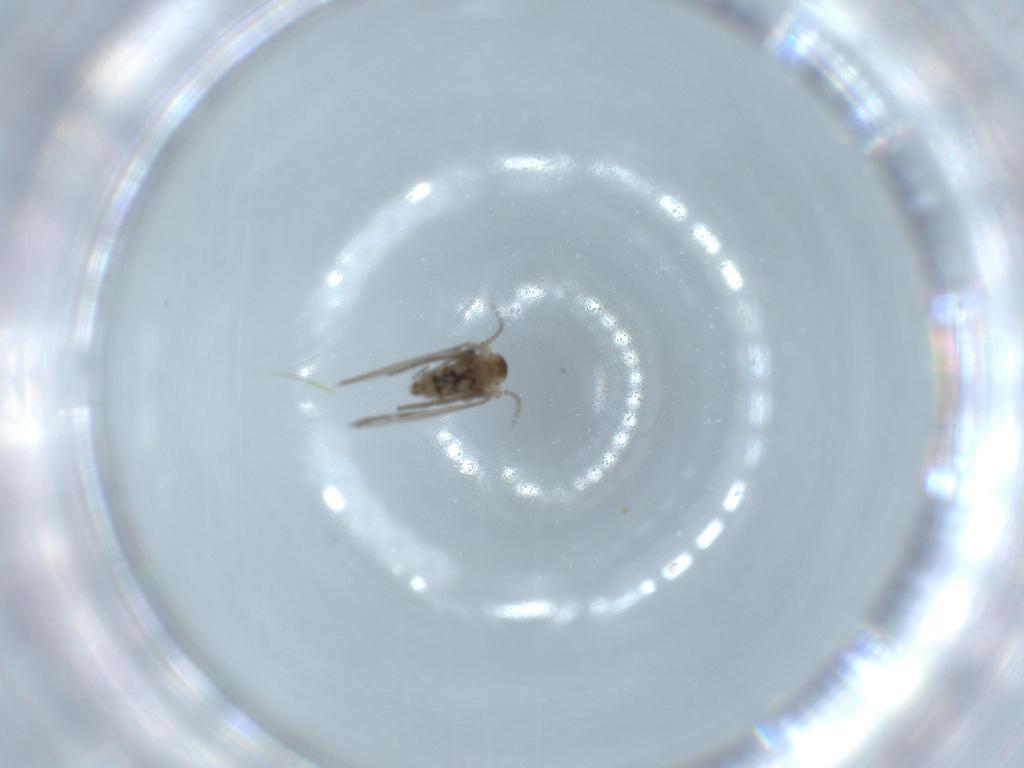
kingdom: Animalia
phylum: Arthropoda
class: Insecta
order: Diptera
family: Psychodidae
